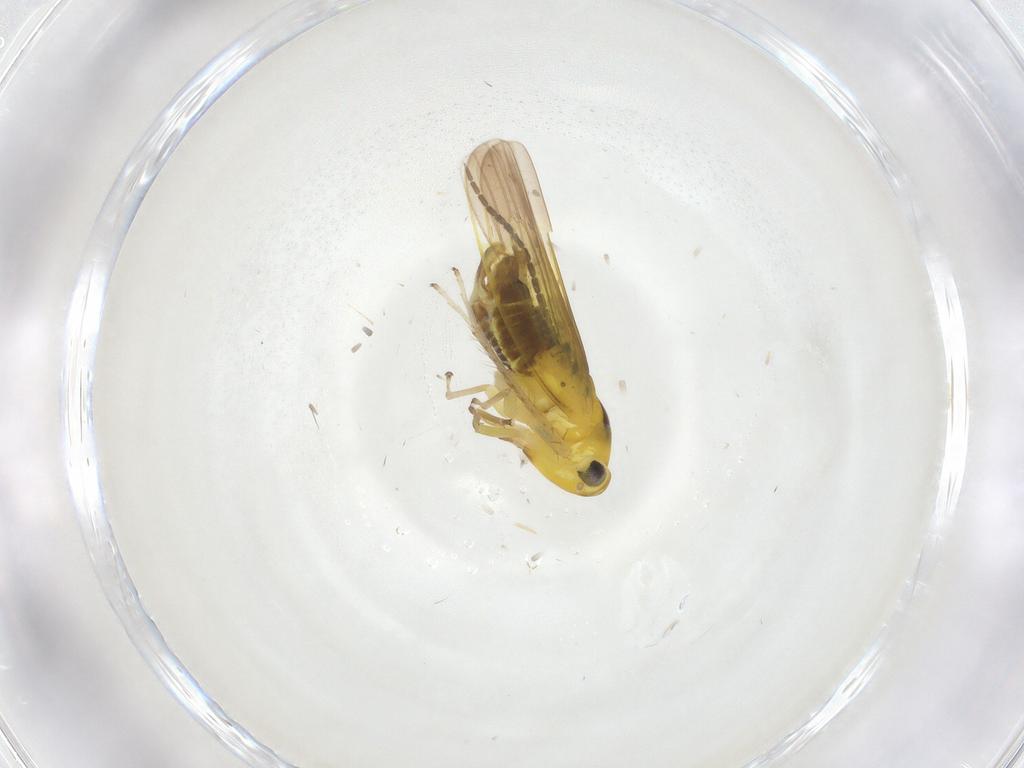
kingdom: Animalia
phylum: Arthropoda
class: Insecta
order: Hemiptera
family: Cicadellidae
